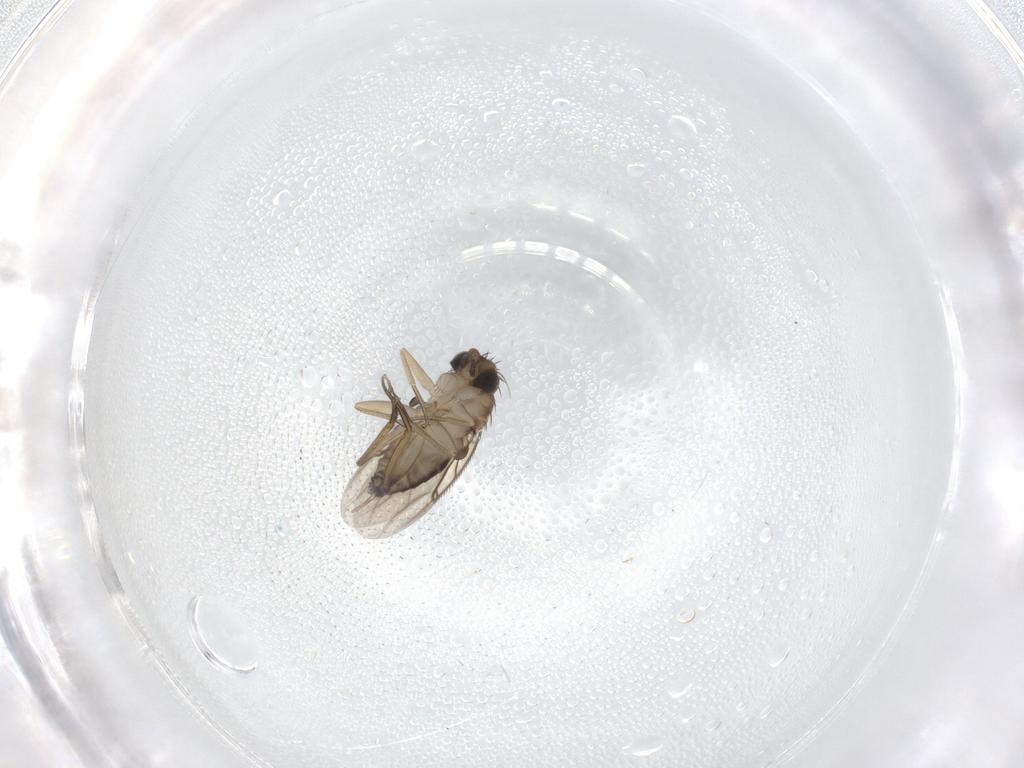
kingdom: Animalia
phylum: Arthropoda
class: Insecta
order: Diptera
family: Phoridae
